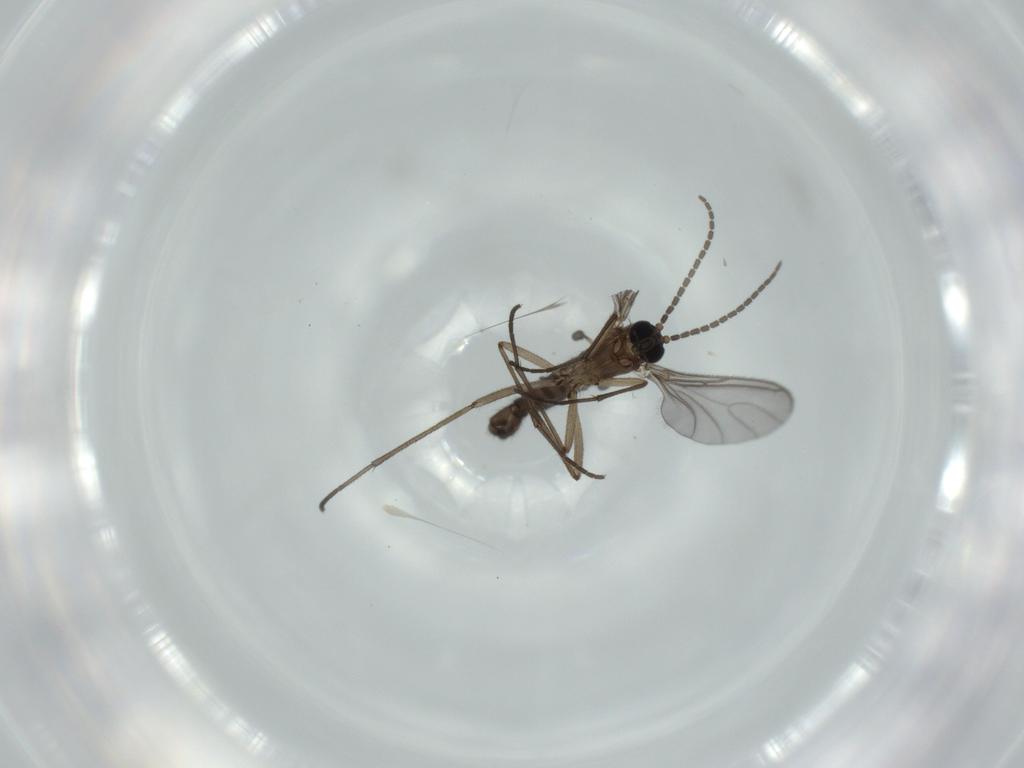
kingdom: Animalia
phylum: Arthropoda
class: Insecta
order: Diptera
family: Sciaridae
